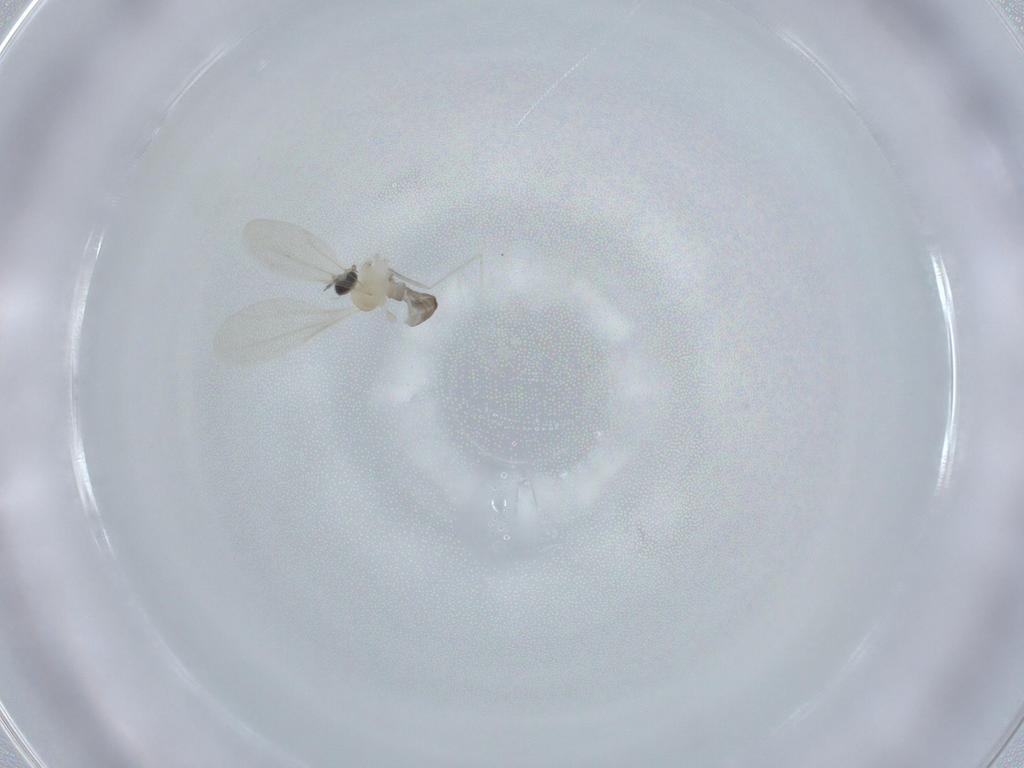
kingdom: Animalia
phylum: Arthropoda
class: Insecta
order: Diptera
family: Cecidomyiidae
